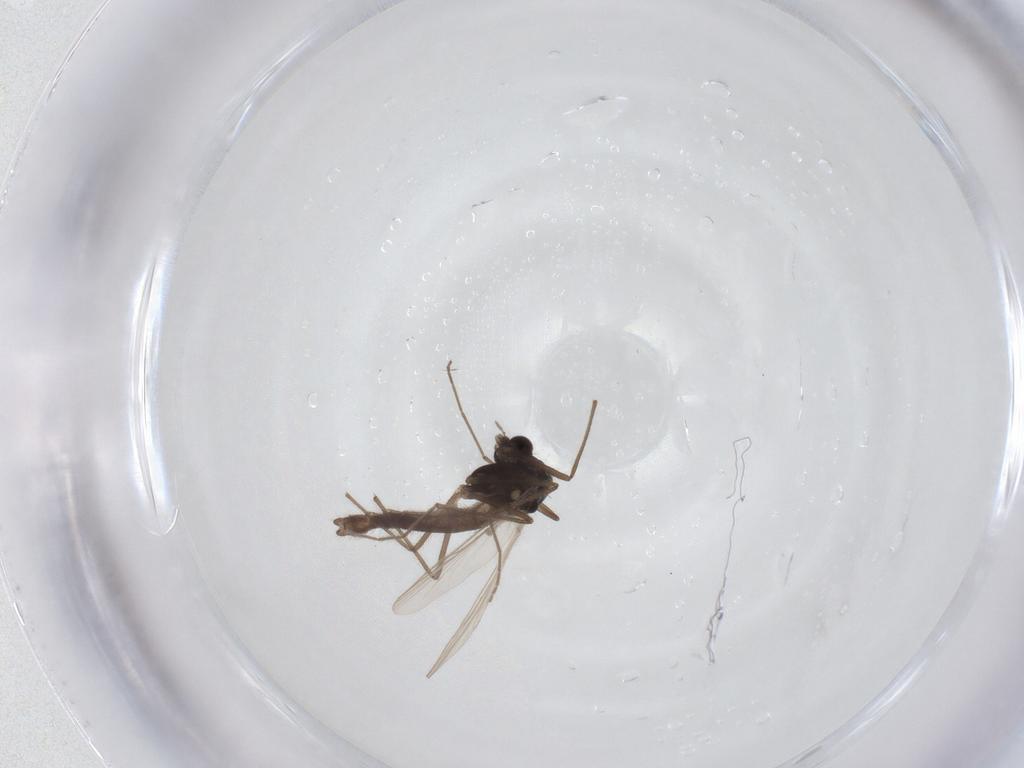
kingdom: Animalia
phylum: Arthropoda
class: Insecta
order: Diptera
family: Chironomidae
